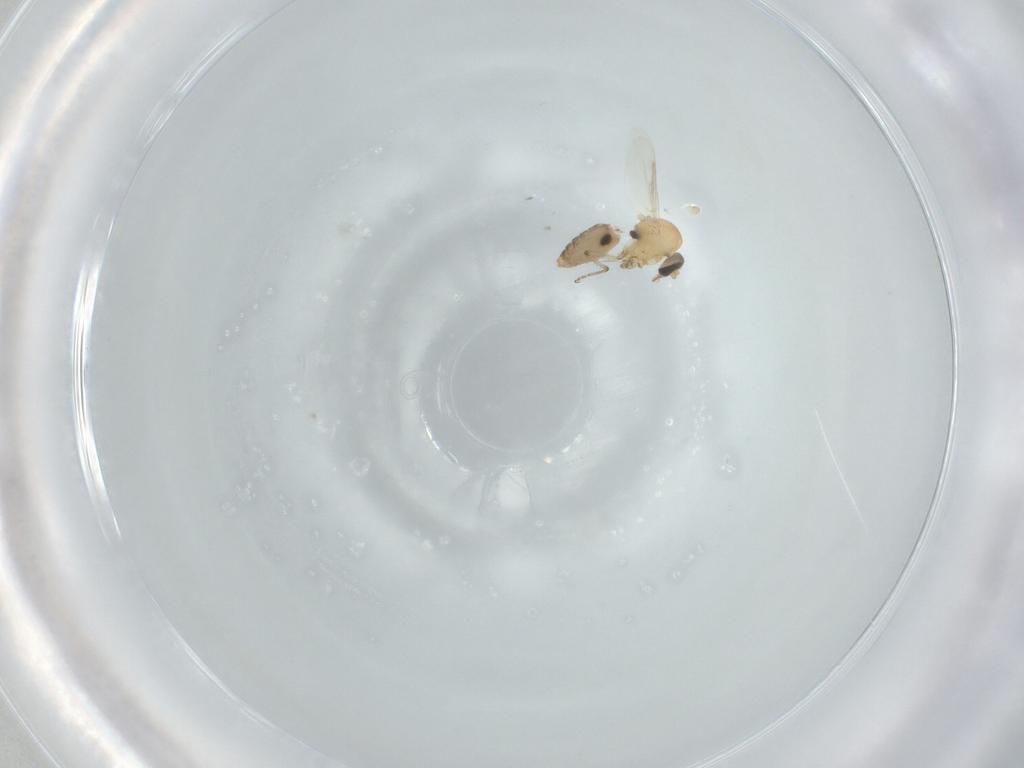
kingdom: Animalia
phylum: Arthropoda
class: Insecta
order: Diptera
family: Ceratopogonidae
